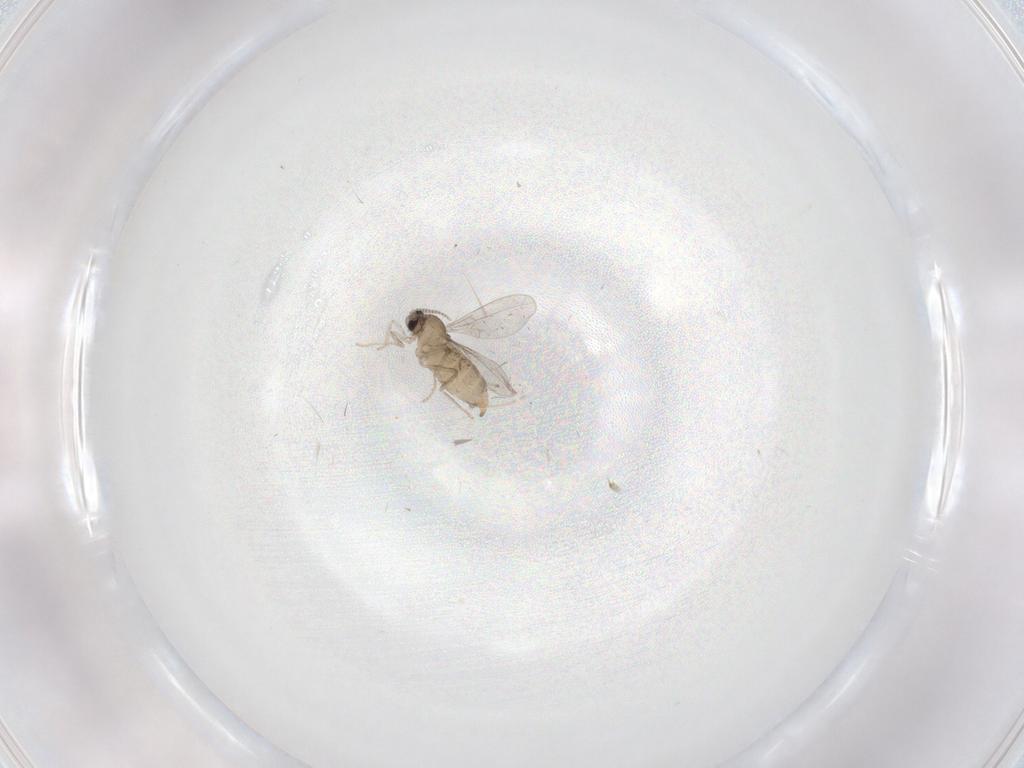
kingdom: Animalia
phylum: Arthropoda
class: Insecta
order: Diptera
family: Cecidomyiidae
